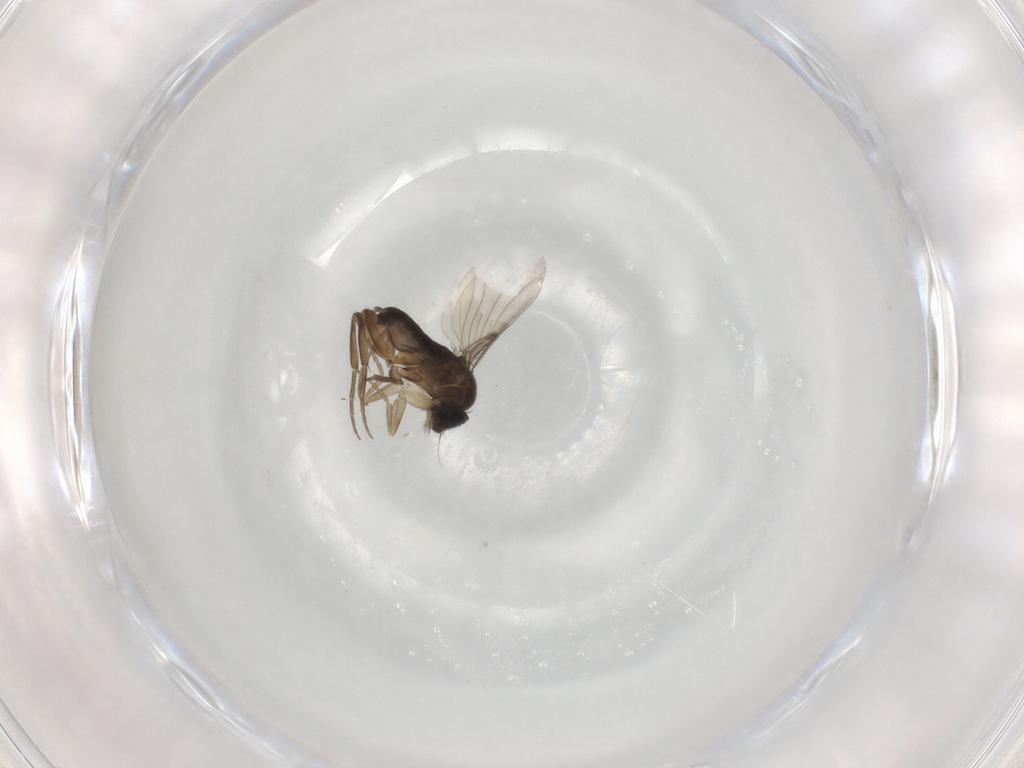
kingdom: Animalia
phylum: Arthropoda
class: Insecta
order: Diptera
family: Phoridae
